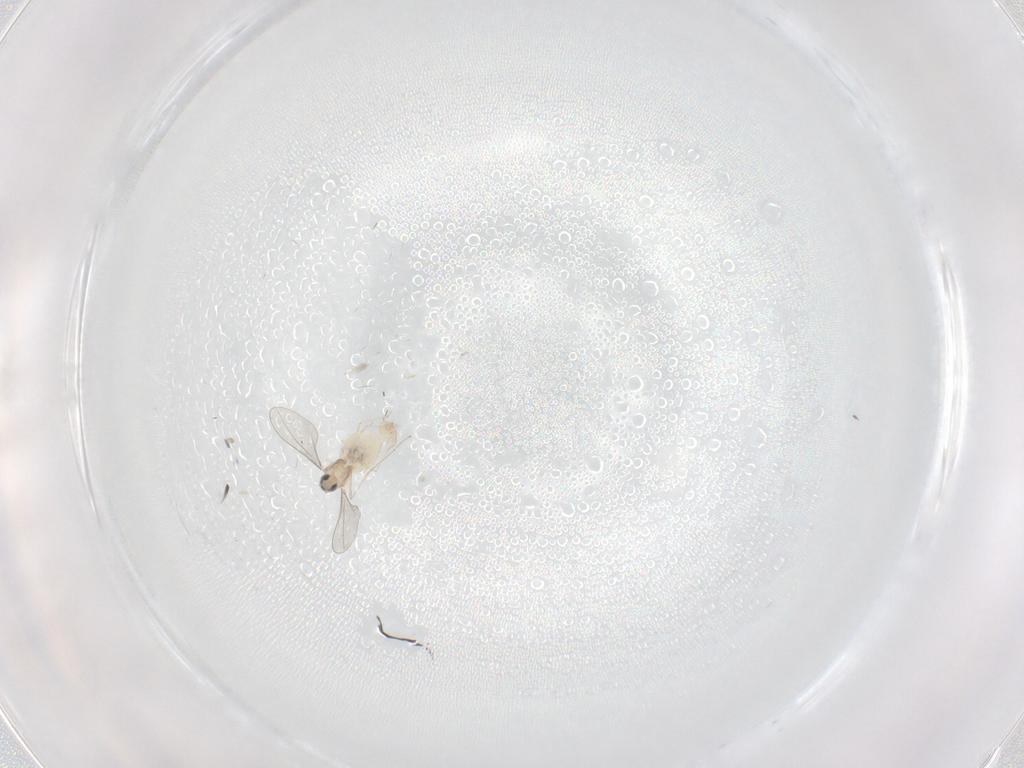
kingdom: Animalia
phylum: Arthropoda
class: Insecta
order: Diptera
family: Cecidomyiidae
